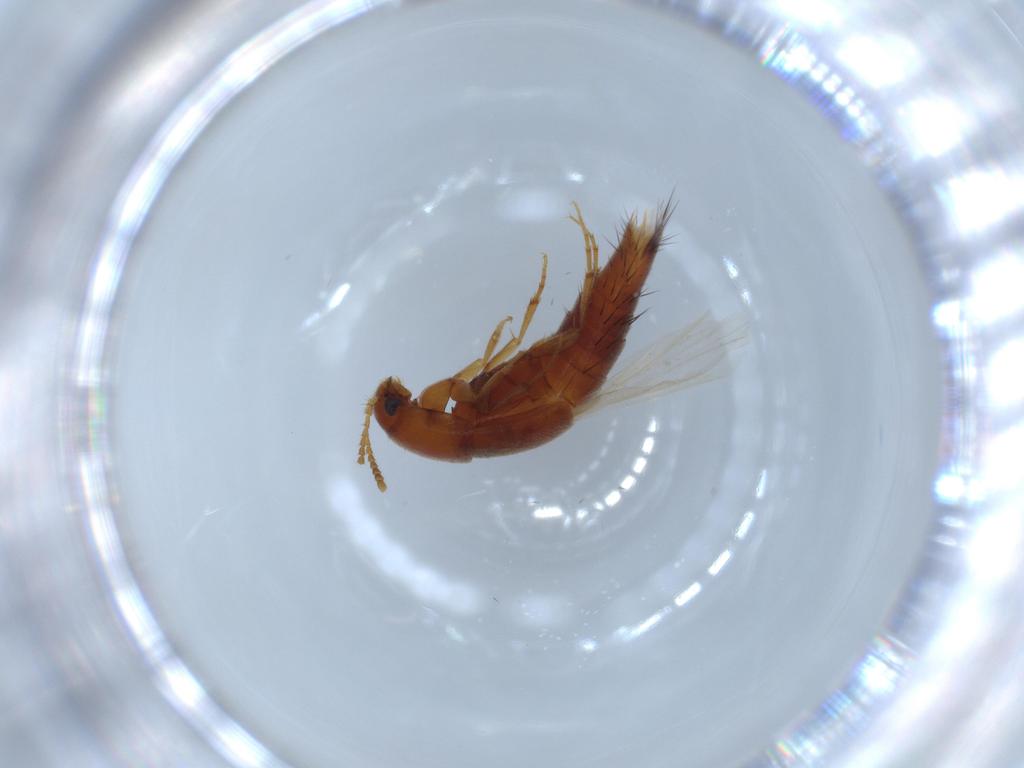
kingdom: Animalia
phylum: Arthropoda
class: Insecta
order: Coleoptera
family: Staphylinidae
